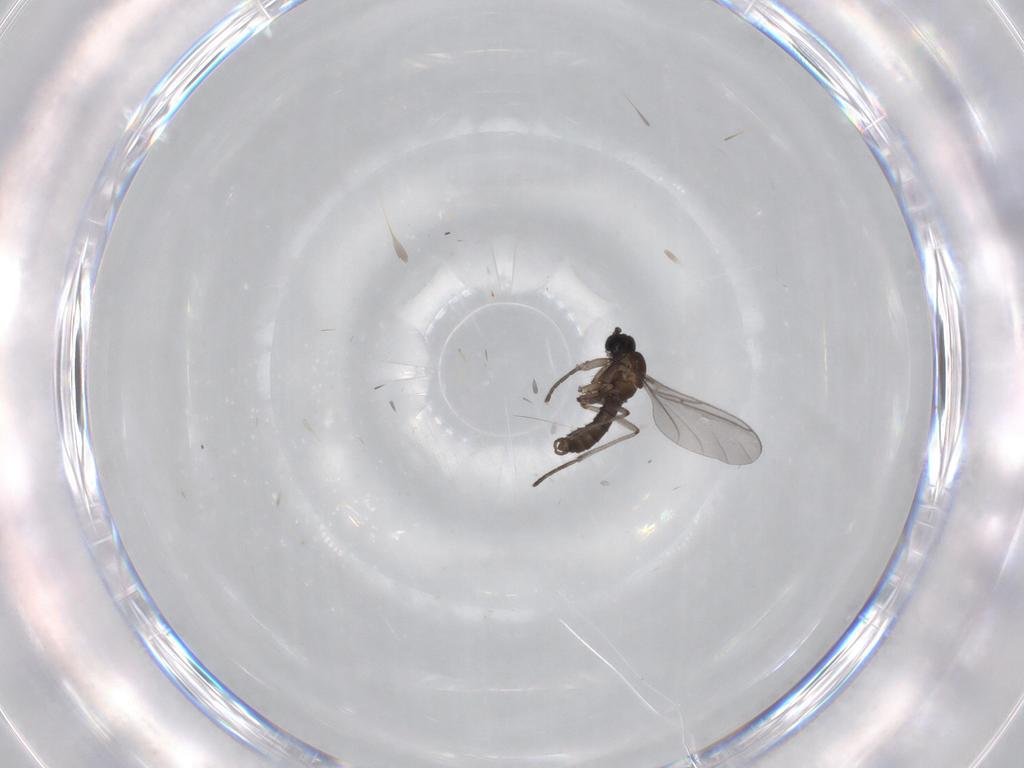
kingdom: Animalia
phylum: Arthropoda
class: Insecta
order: Diptera
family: Sciaridae
